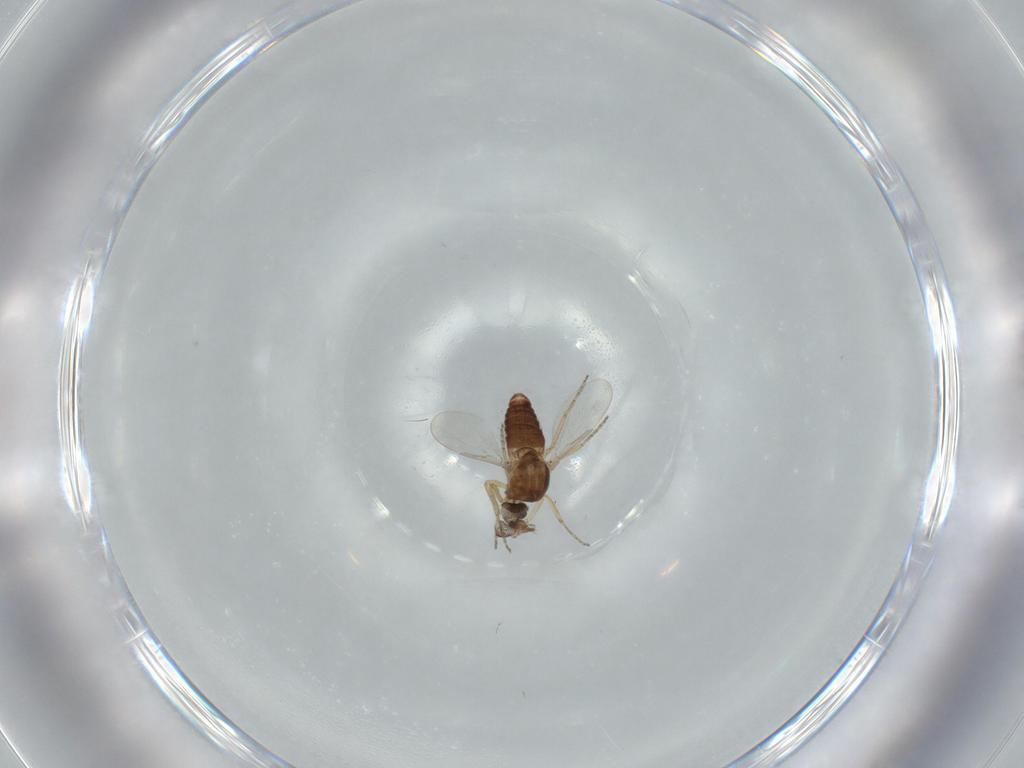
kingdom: Animalia
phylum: Arthropoda
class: Insecta
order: Diptera
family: Ceratopogonidae
